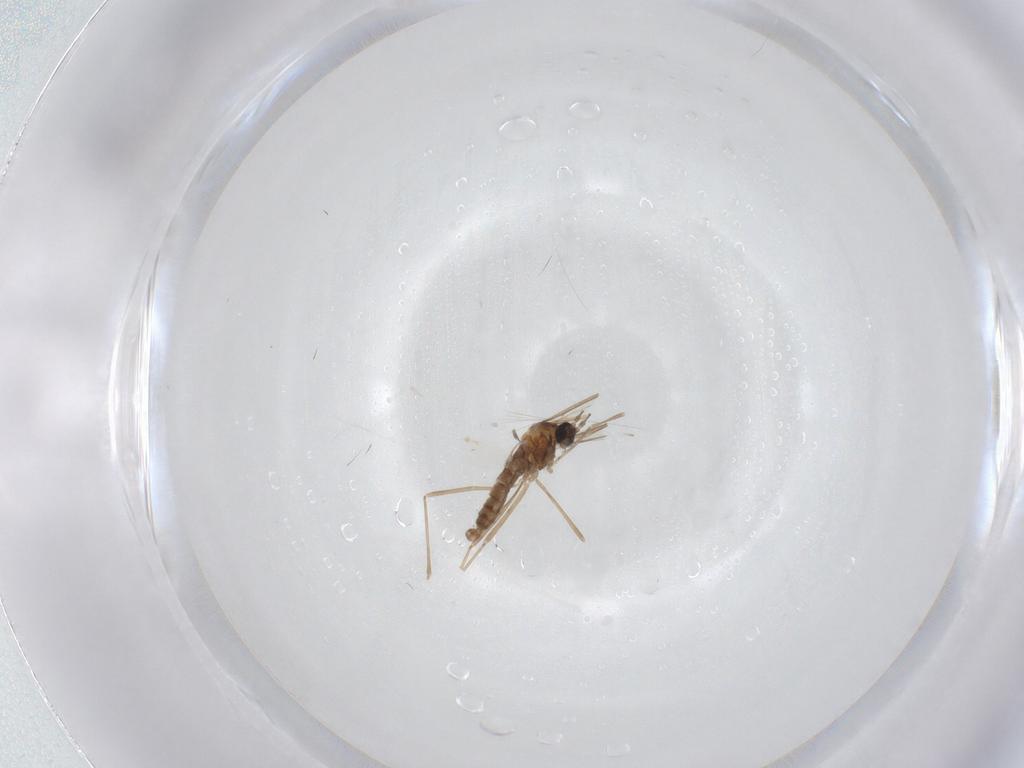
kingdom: Animalia
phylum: Arthropoda
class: Insecta
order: Diptera
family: Cecidomyiidae
